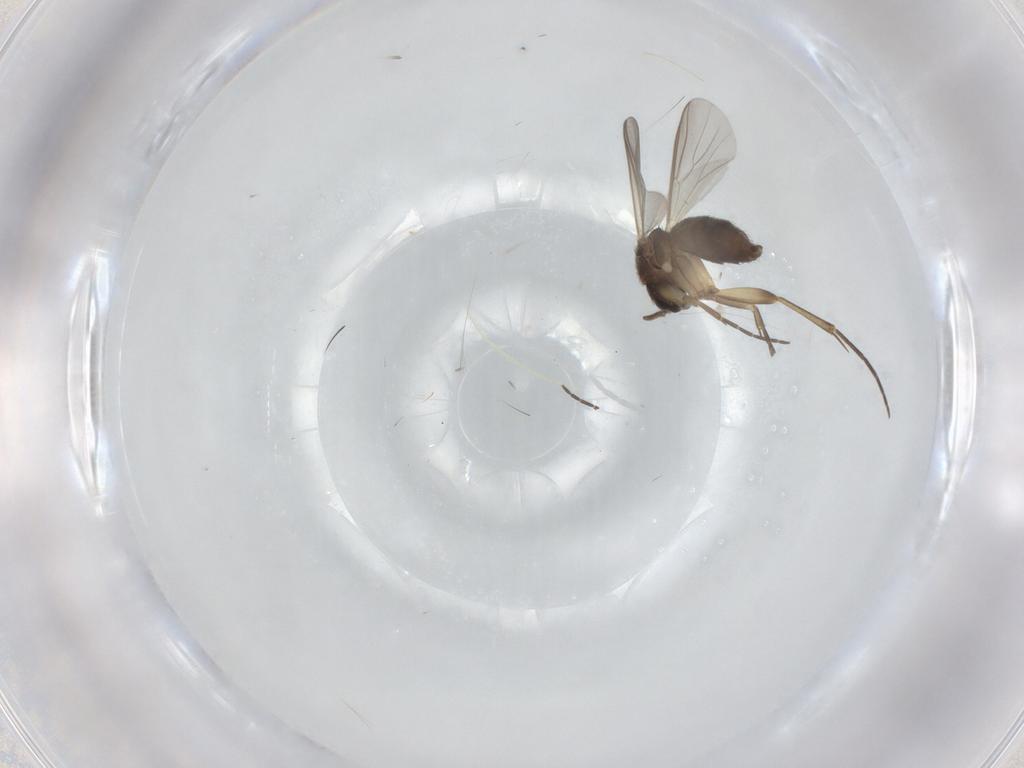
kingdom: Animalia
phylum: Arthropoda
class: Insecta
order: Diptera
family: Mycetophilidae
